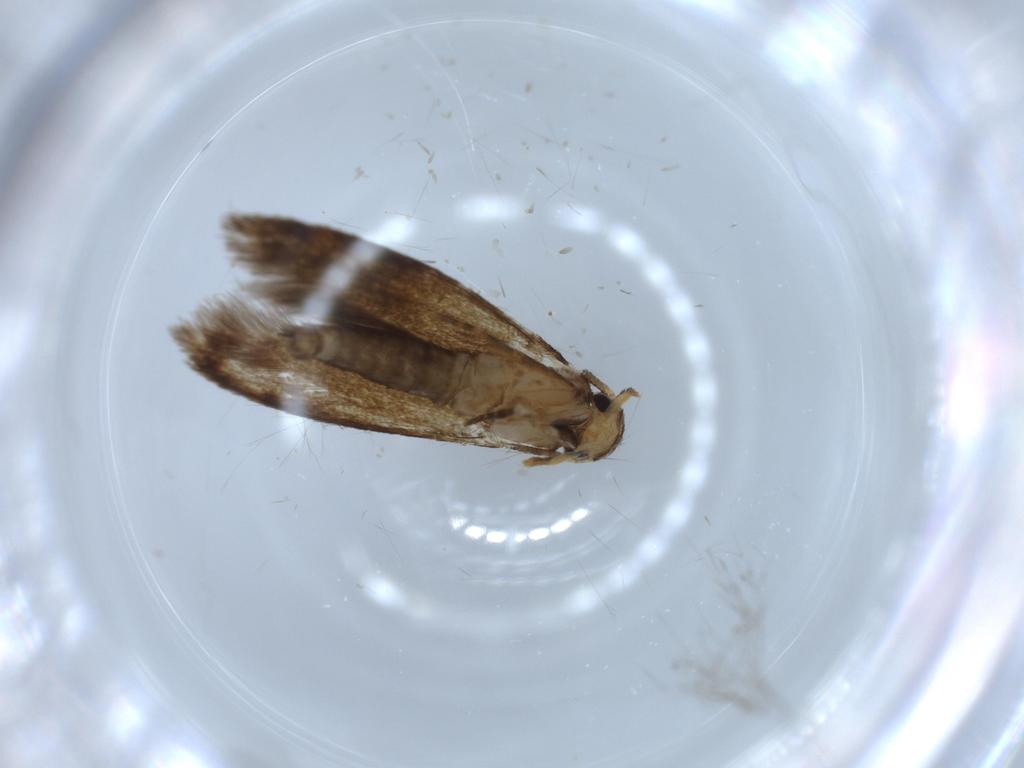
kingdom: Animalia
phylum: Arthropoda
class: Insecta
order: Lepidoptera
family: Tineidae
